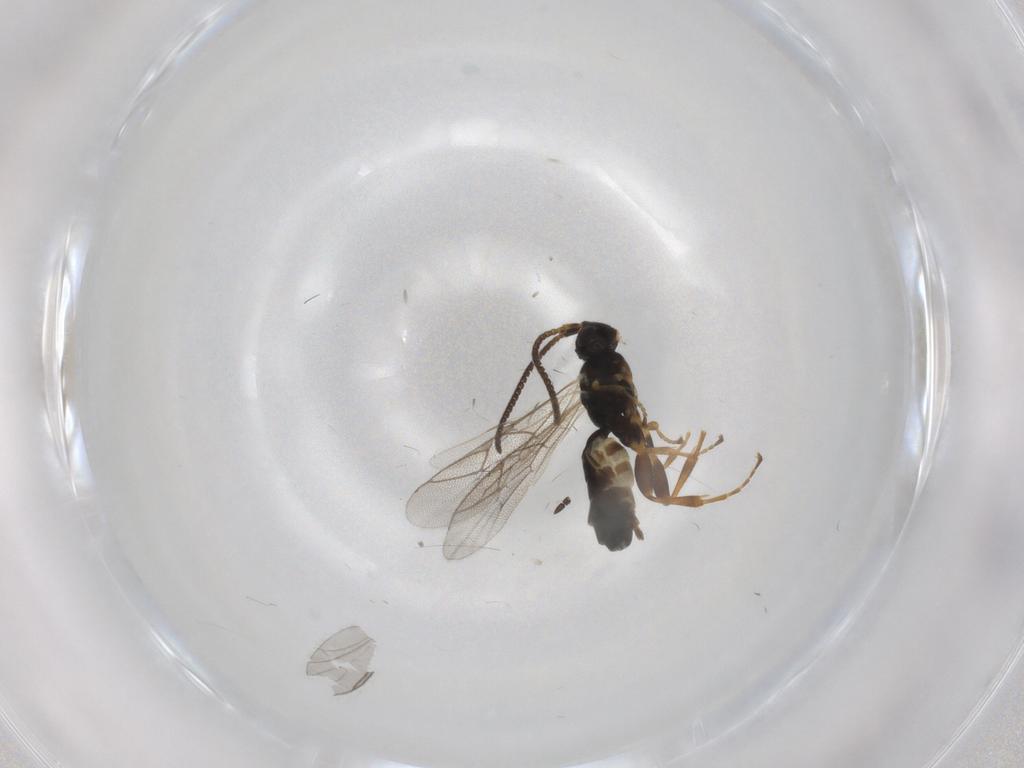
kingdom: Animalia
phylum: Arthropoda
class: Insecta
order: Hymenoptera
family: Ichneumonidae
